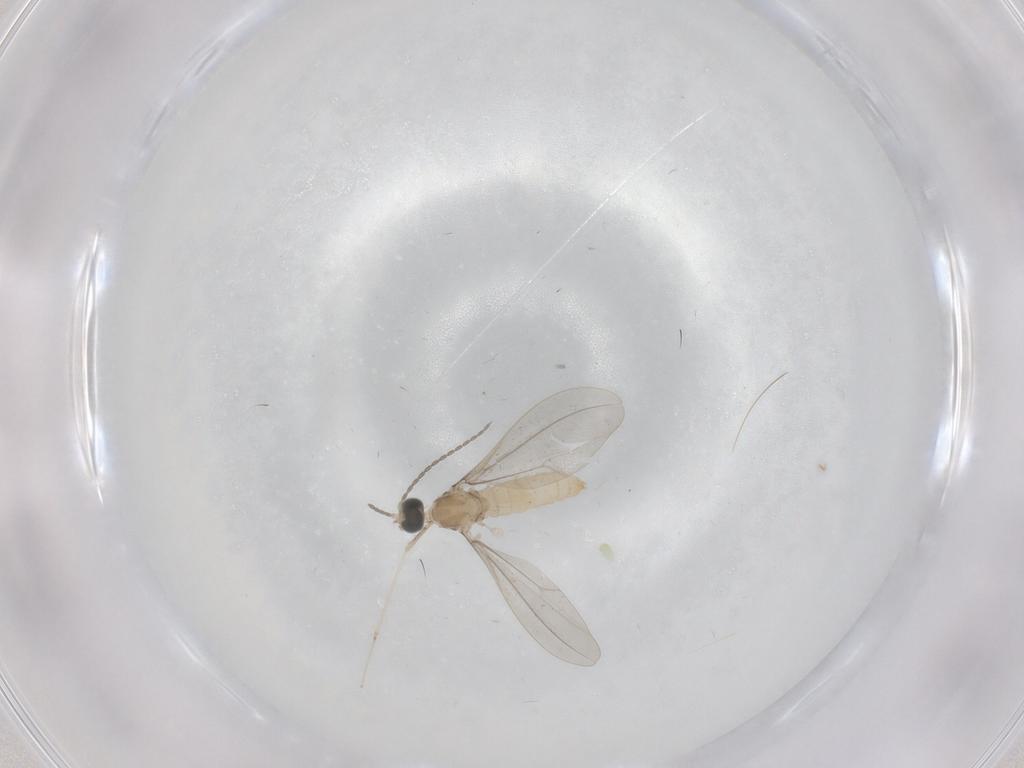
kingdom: Animalia
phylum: Arthropoda
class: Insecta
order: Diptera
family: Cecidomyiidae
